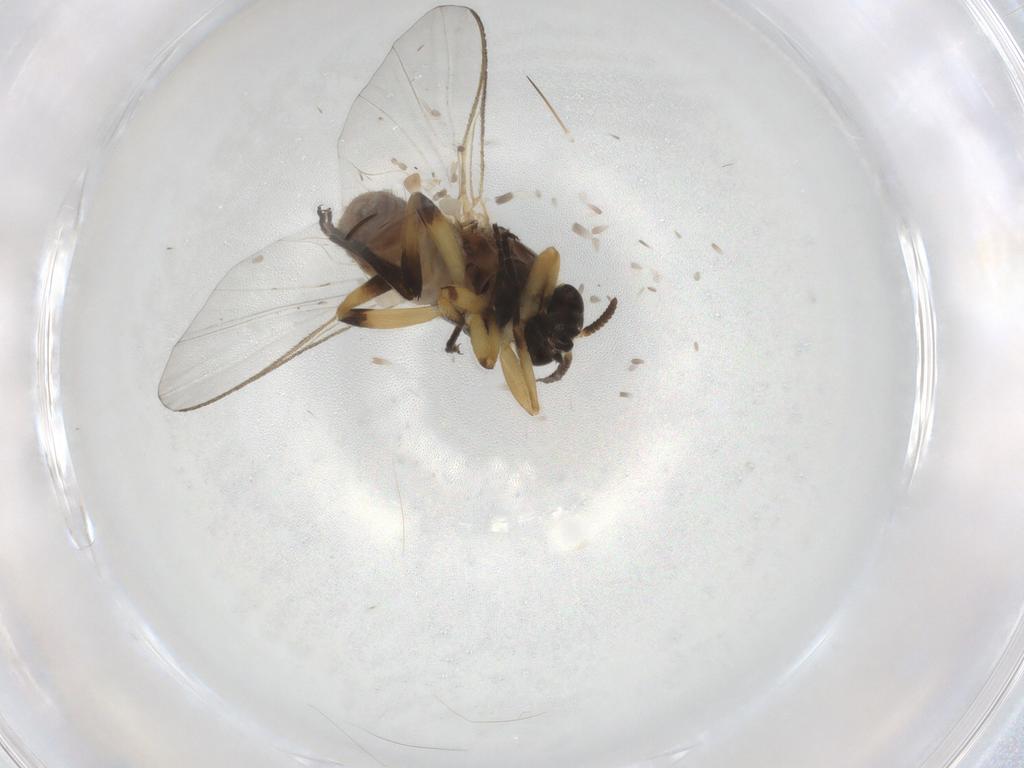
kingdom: Animalia
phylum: Arthropoda
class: Insecta
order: Diptera
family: Simuliidae
